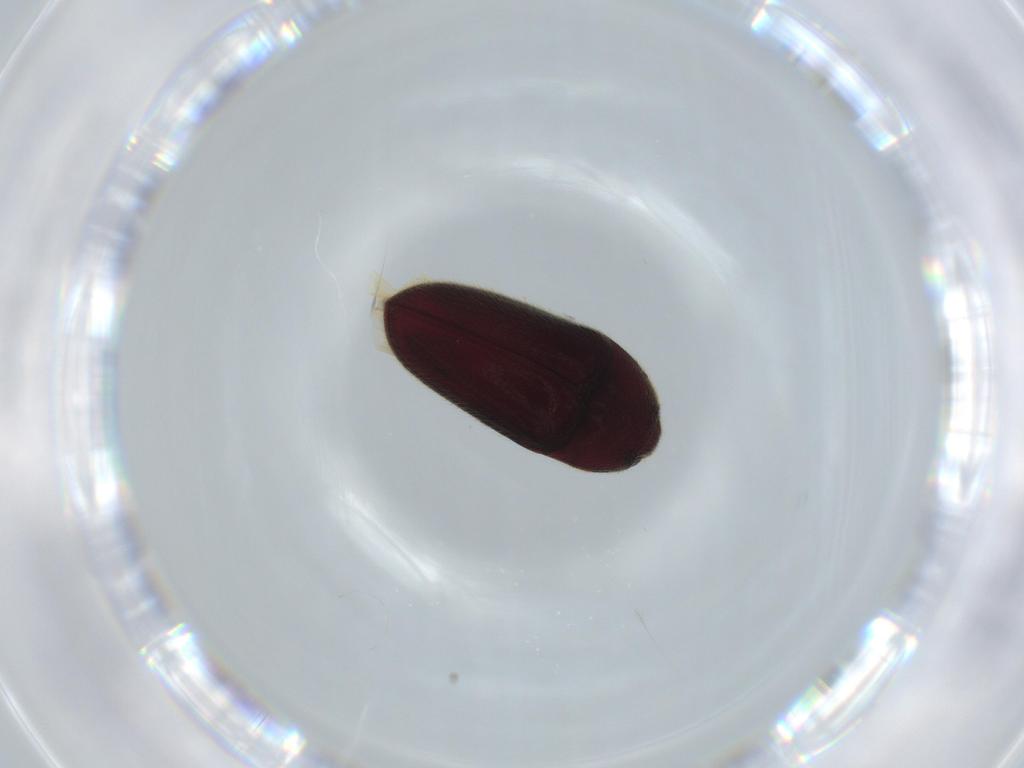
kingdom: Animalia
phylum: Arthropoda
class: Insecta
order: Coleoptera
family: Throscidae
